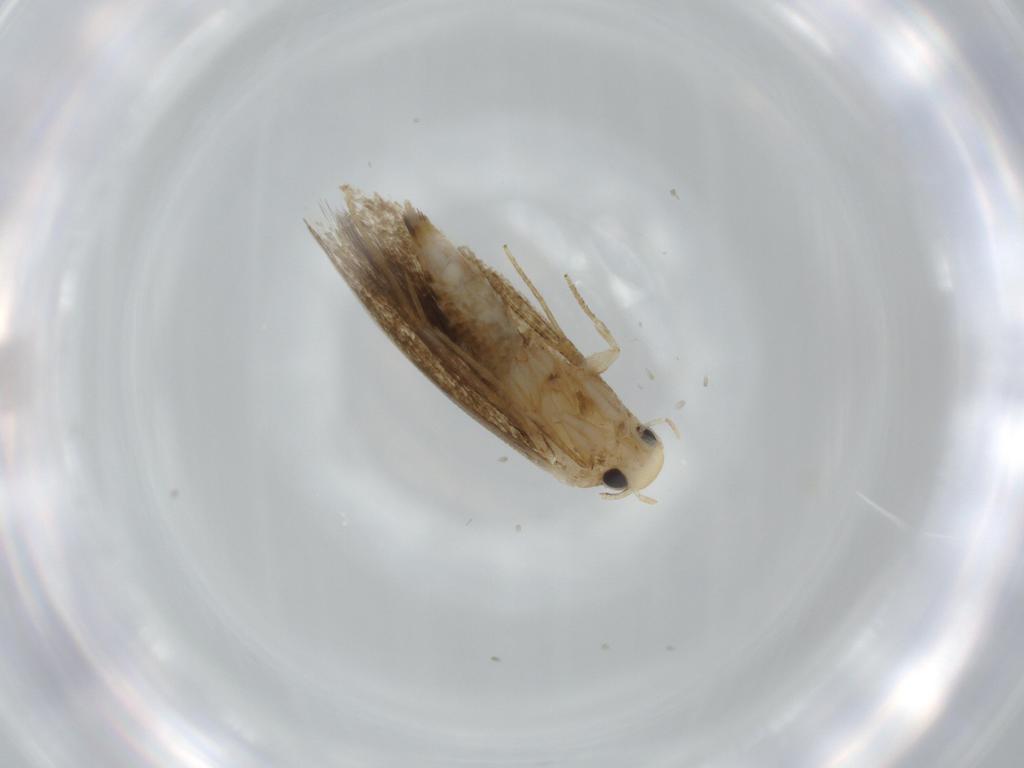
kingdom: Animalia
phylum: Arthropoda
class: Insecta
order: Lepidoptera
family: Tineidae
